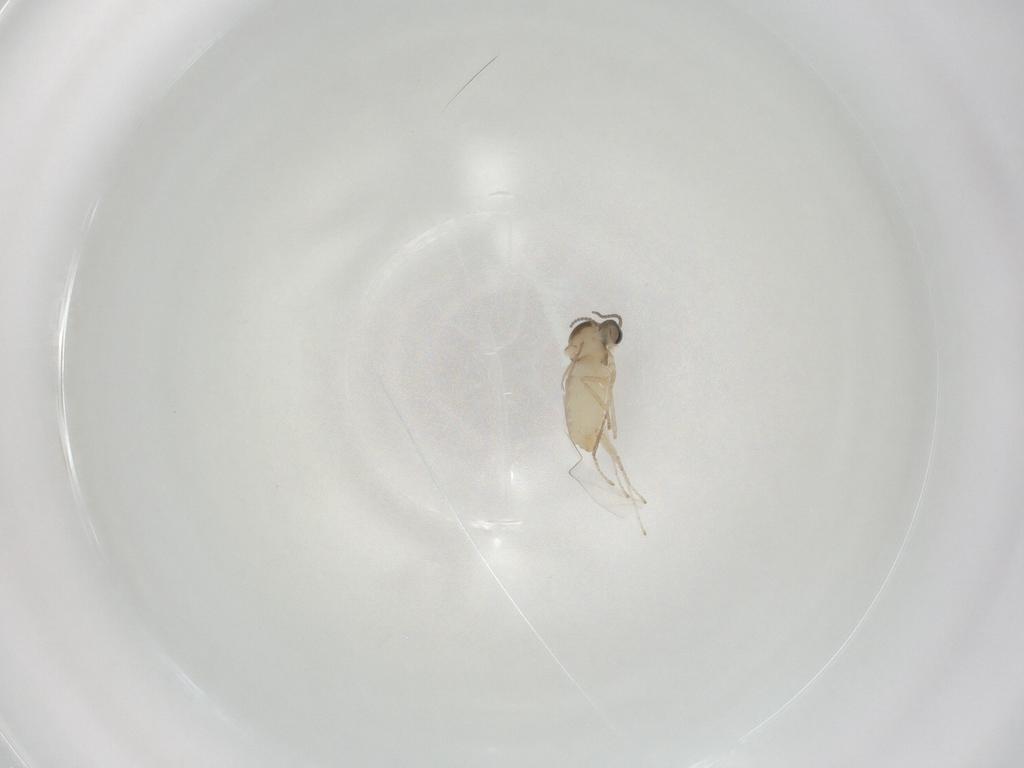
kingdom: Animalia
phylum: Arthropoda
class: Insecta
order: Diptera
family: Cecidomyiidae
